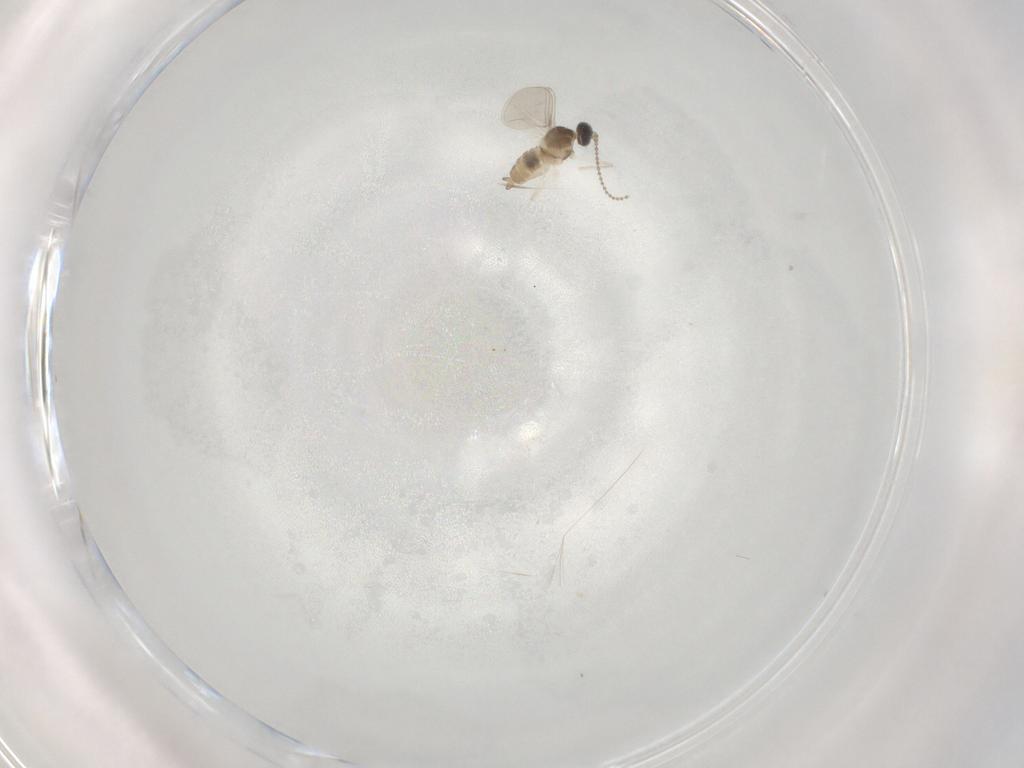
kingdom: Animalia
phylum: Arthropoda
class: Insecta
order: Diptera
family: Cecidomyiidae
